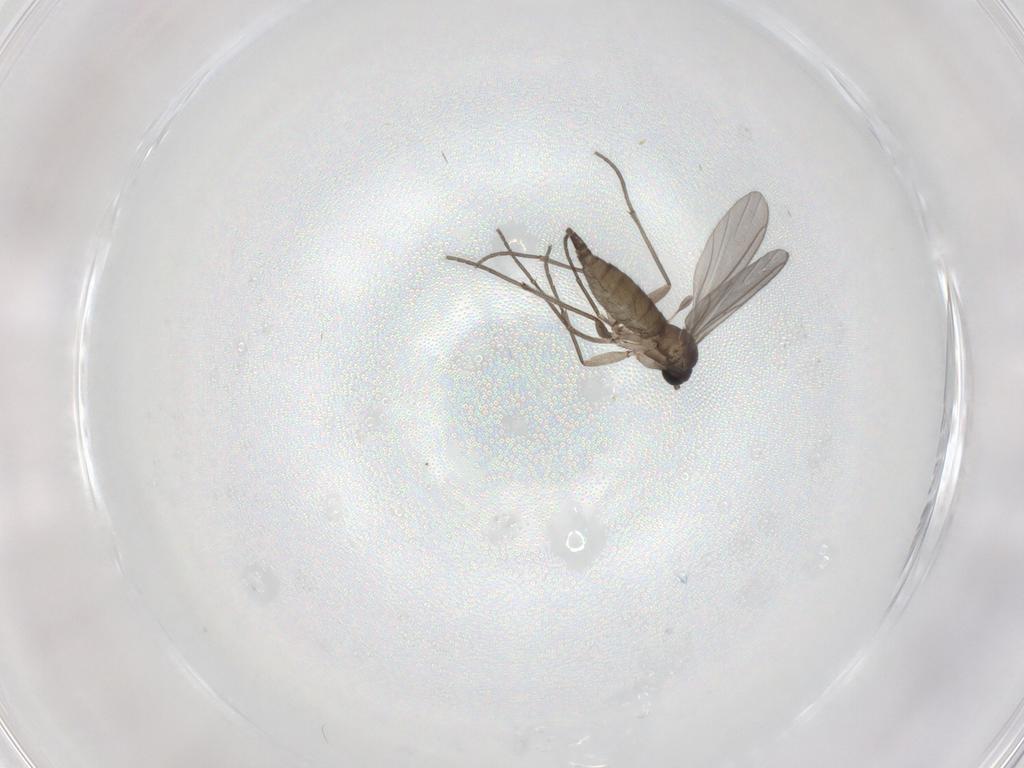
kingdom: Animalia
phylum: Arthropoda
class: Insecta
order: Diptera
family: Sciaridae
